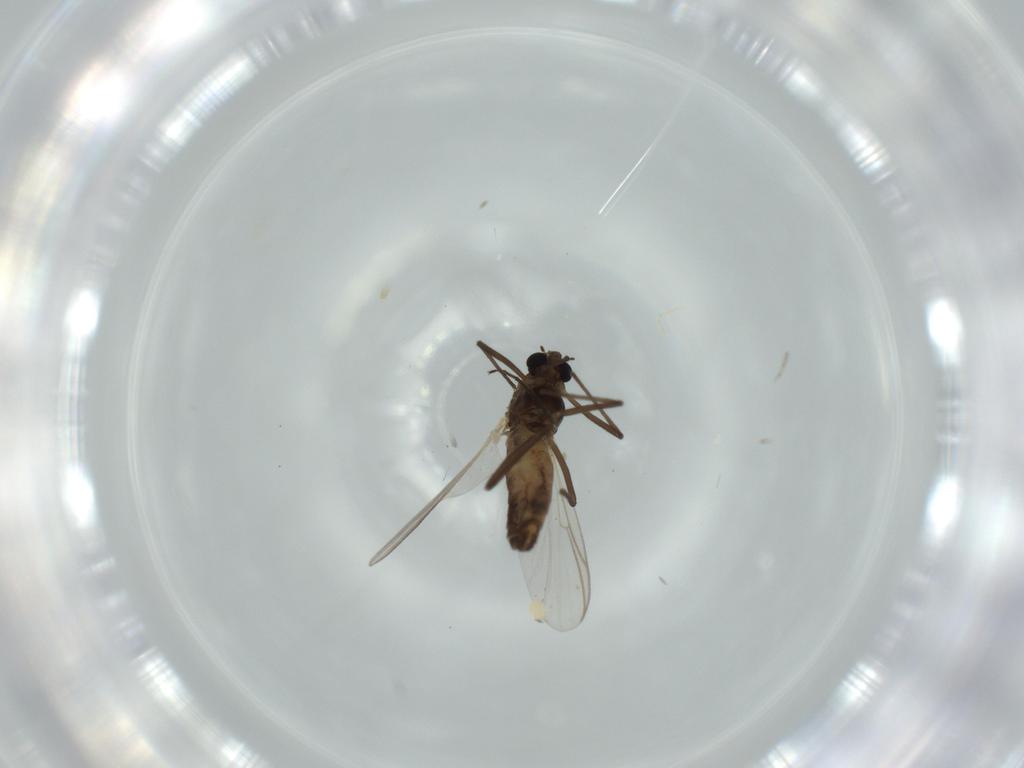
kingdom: Animalia
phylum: Arthropoda
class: Insecta
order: Diptera
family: Chironomidae
